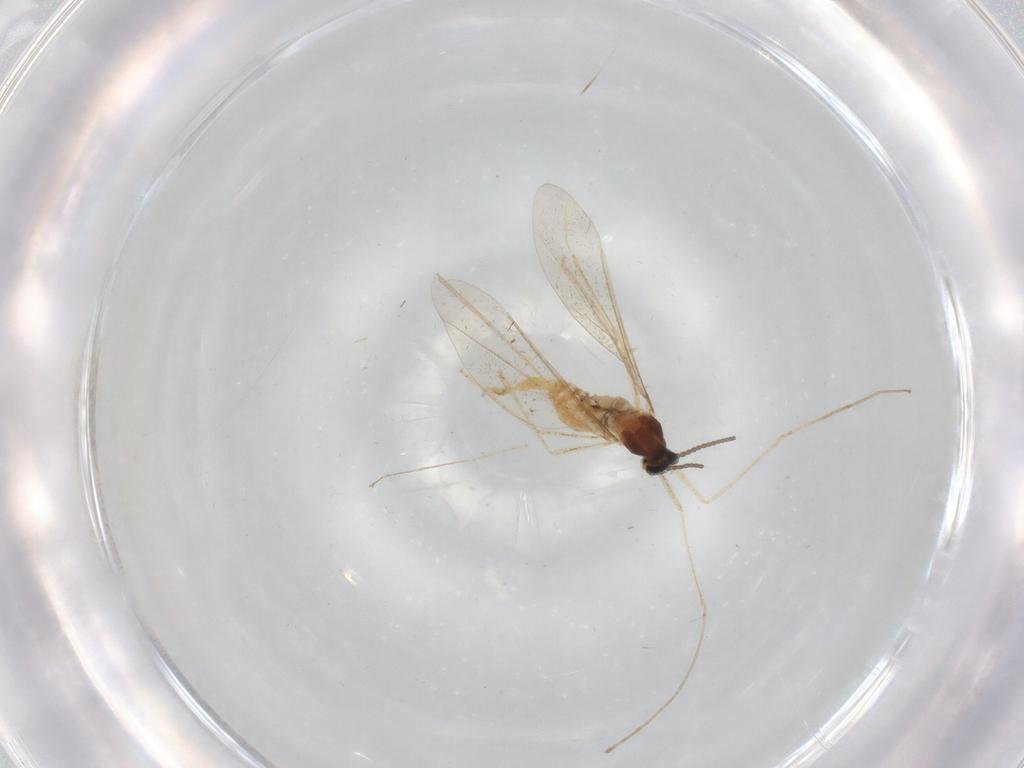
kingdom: Animalia
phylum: Arthropoda
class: Insecta
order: Diptera
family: Cecidomyiidae
